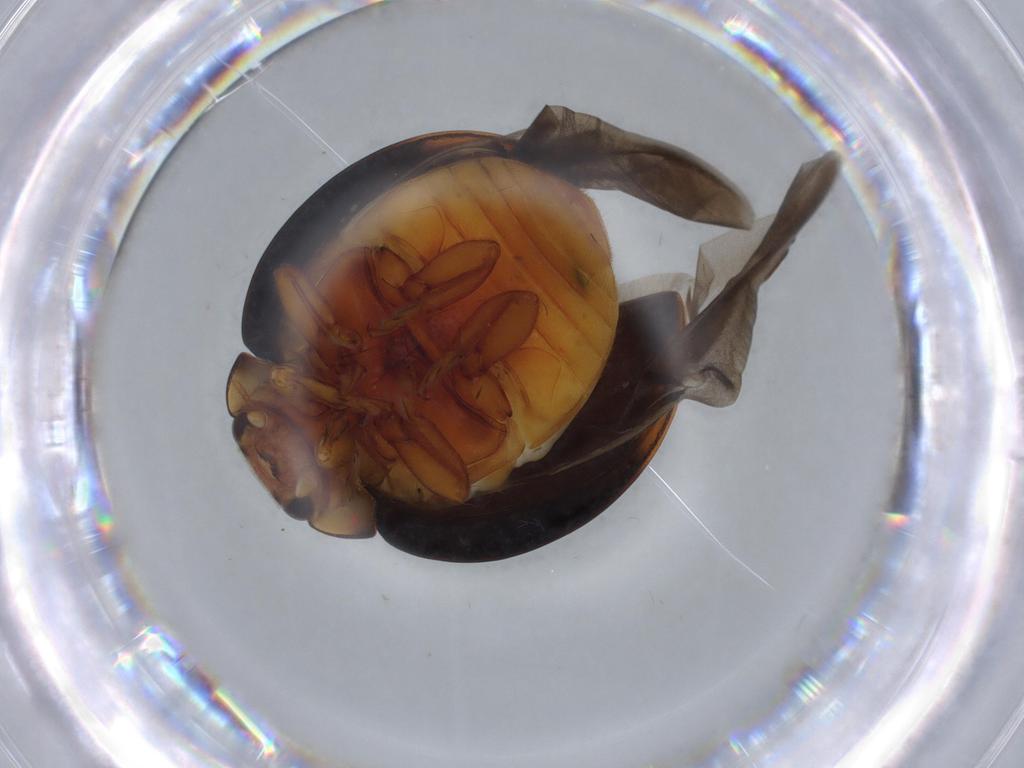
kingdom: Animalia
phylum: Arthropoda
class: Insecta
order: Coleoptera
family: Melyridae
